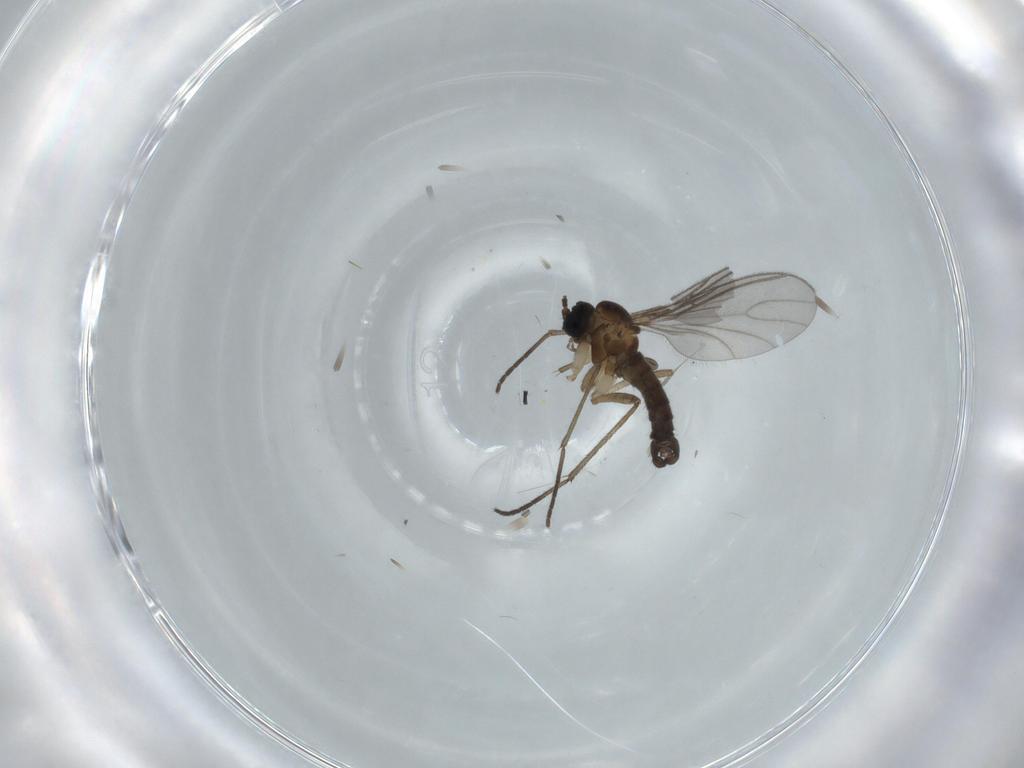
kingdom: Animalia
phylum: Arthropoda
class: Insecta
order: Diptera
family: Sciaridae
